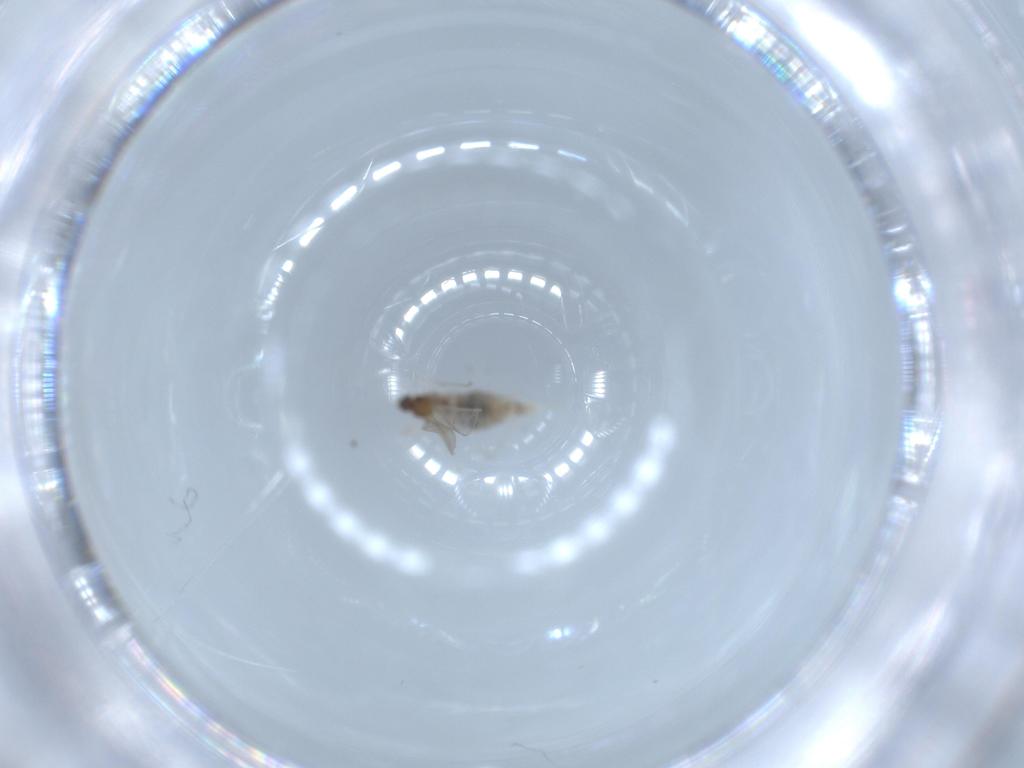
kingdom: Animalia
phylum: Arthropoda
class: Insecta
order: Diptera
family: Cecidomyiidae
